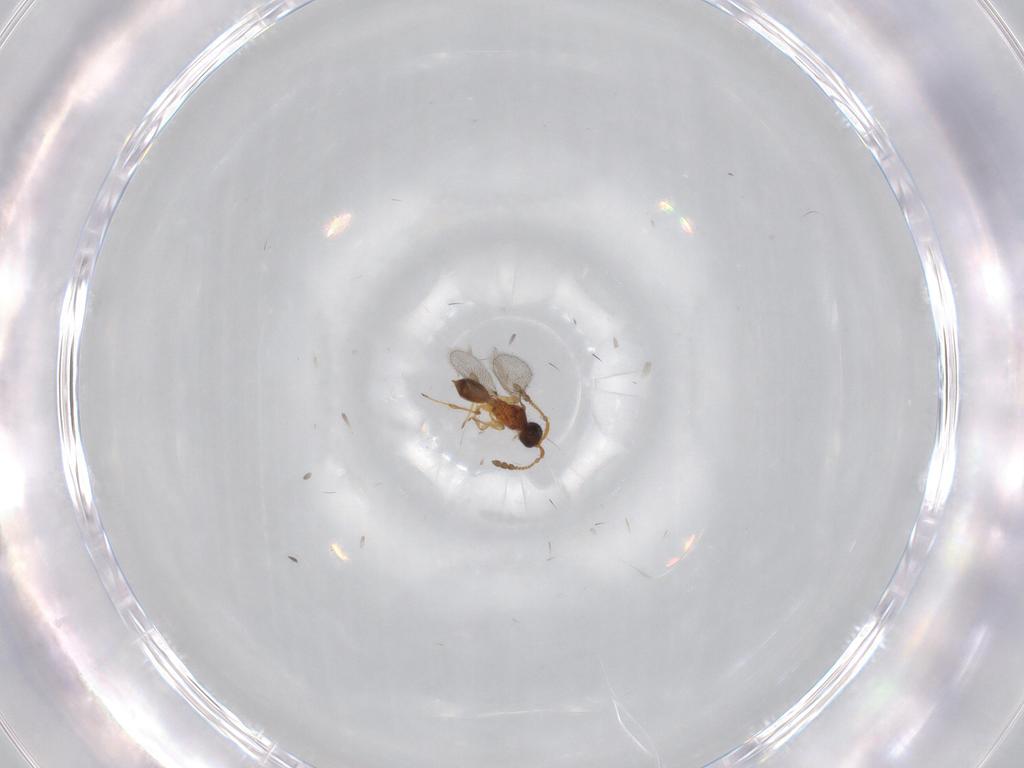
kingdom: Animalia
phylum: Arthropoda
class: Insecta
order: Hymenoptera
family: Diapriidae
